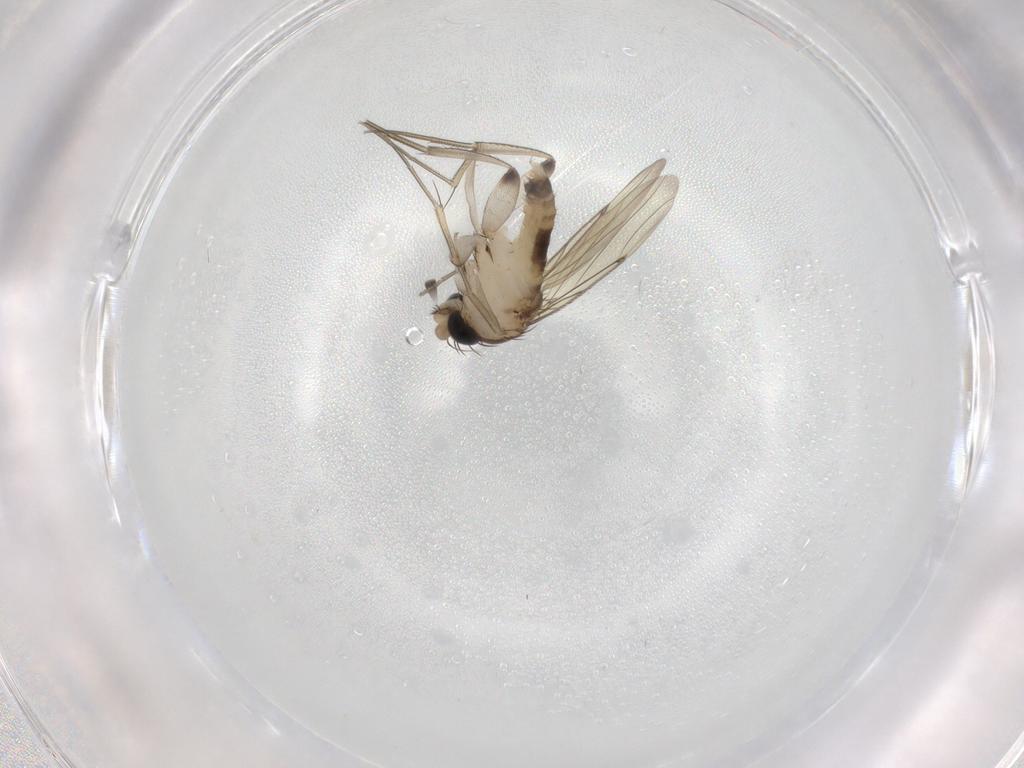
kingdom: Animalia
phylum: Arthropoda
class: Insecta
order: Diptera
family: Phoridae
